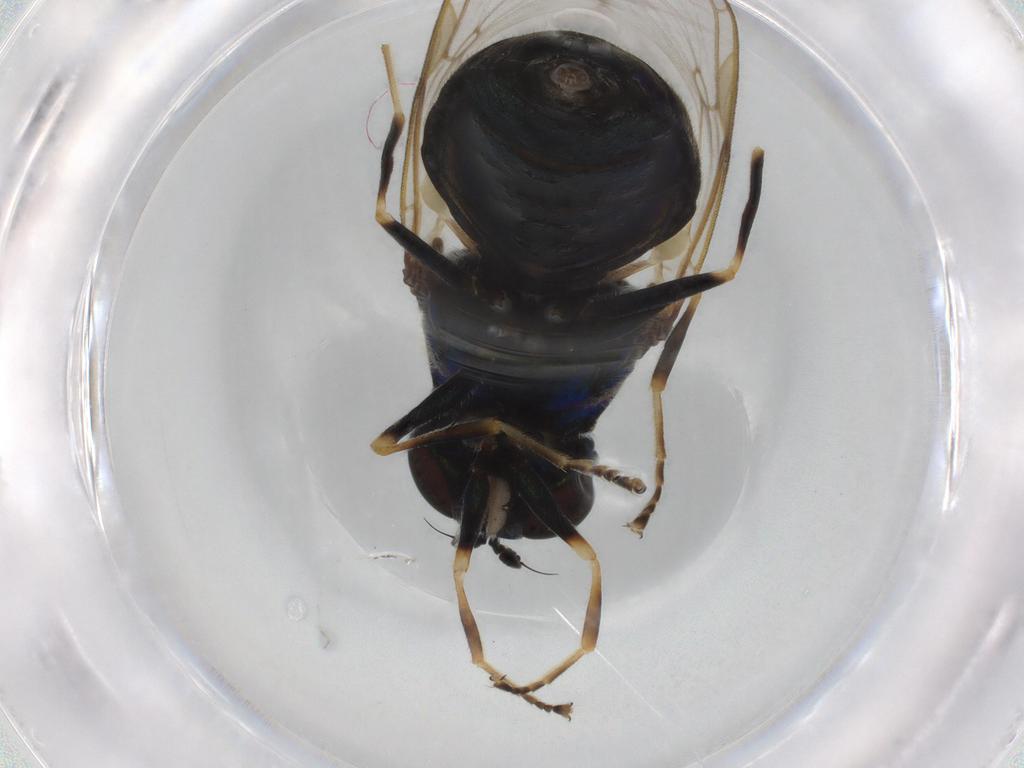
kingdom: Animalia
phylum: Arthropoda
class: Insecta
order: Diptera
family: Stratiomyidae
